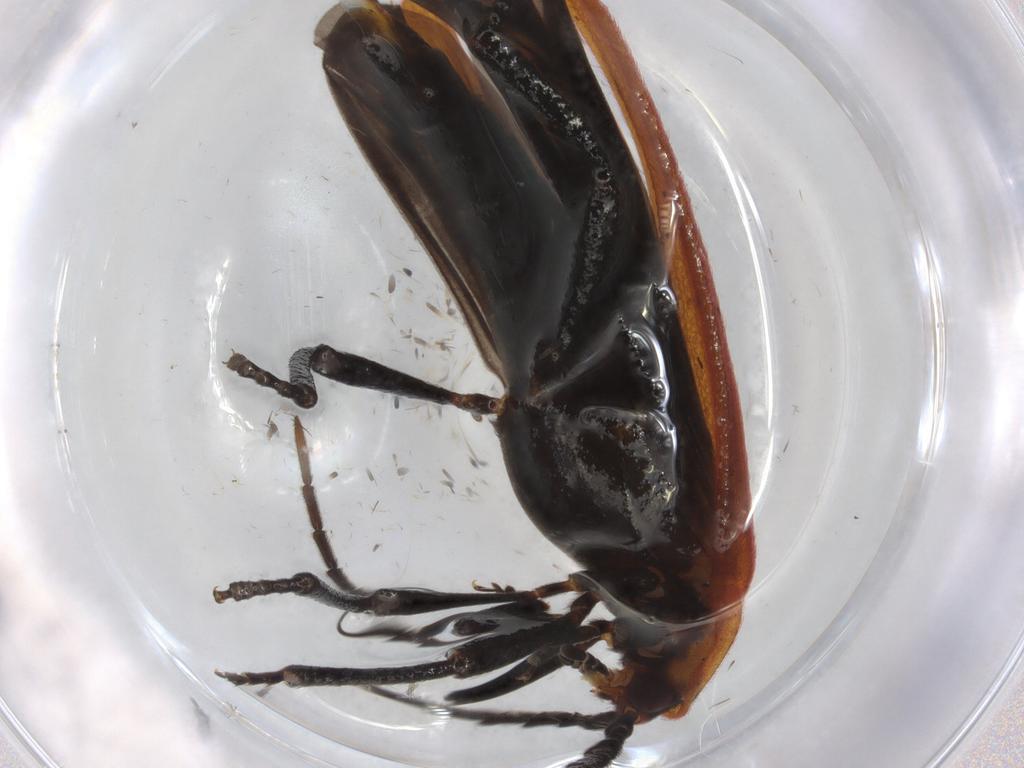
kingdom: Animalia
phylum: Arthropoda
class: Insecta
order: Coleoptera
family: Lycidae
